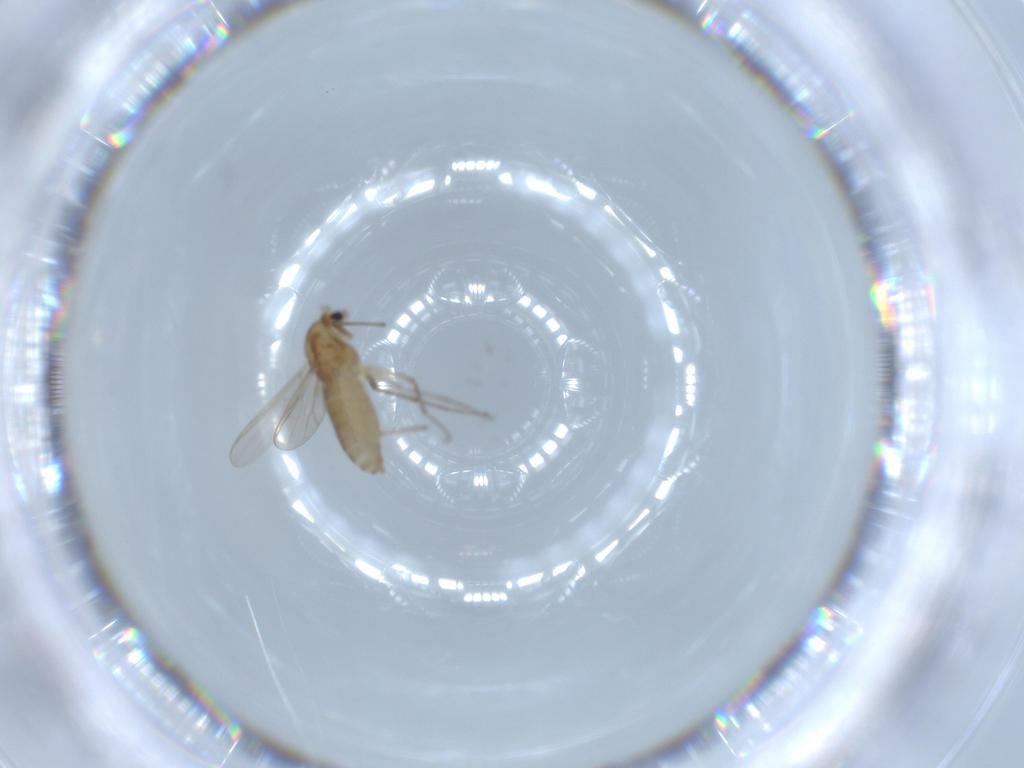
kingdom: Animalia
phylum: Arthropoda
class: Insecta
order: Diptera
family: Chironomidae
